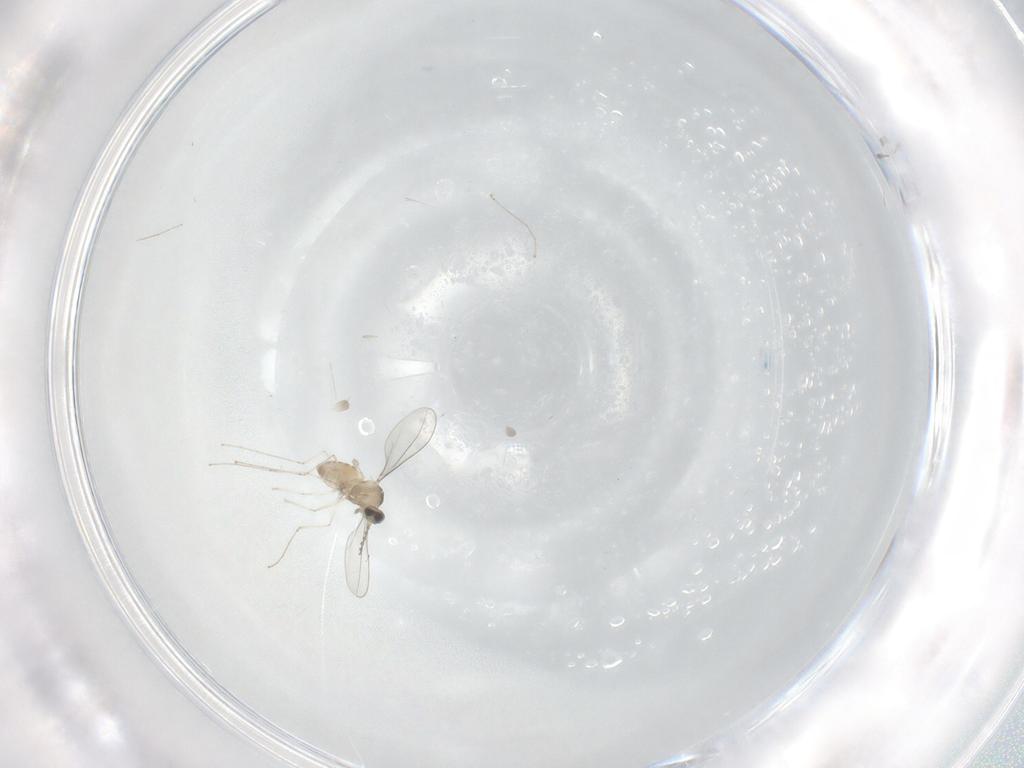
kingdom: Animalia
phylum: Arthropoda
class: Insecta
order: Diptera
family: Cecidomyiidae
